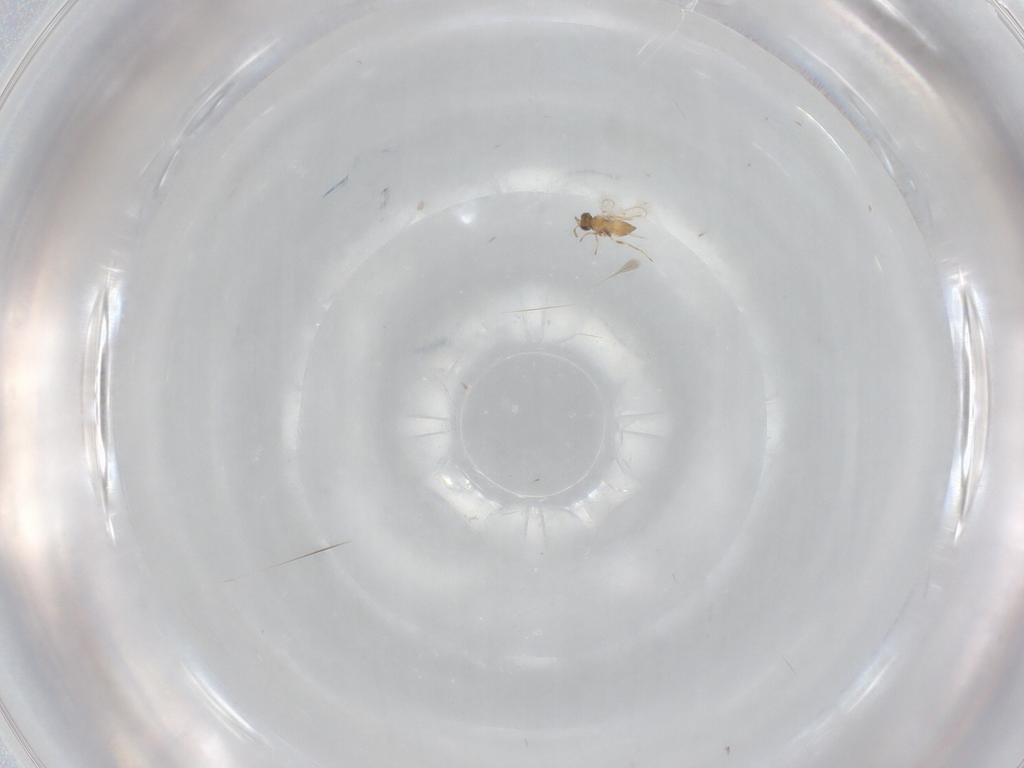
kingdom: Animalia
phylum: Arthropoda
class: Insecta
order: Hymenoptera
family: Trichogrammatidae
